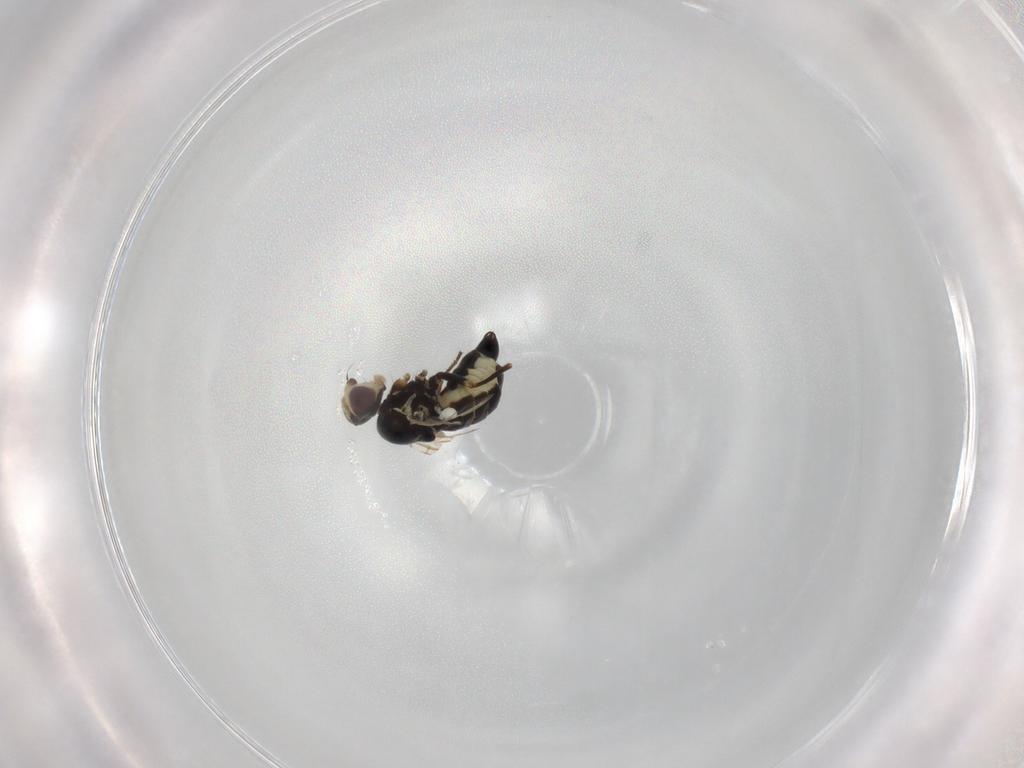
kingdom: Animalia
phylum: Arthropoda
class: Insecta
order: Diptera
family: Agromyzidae
